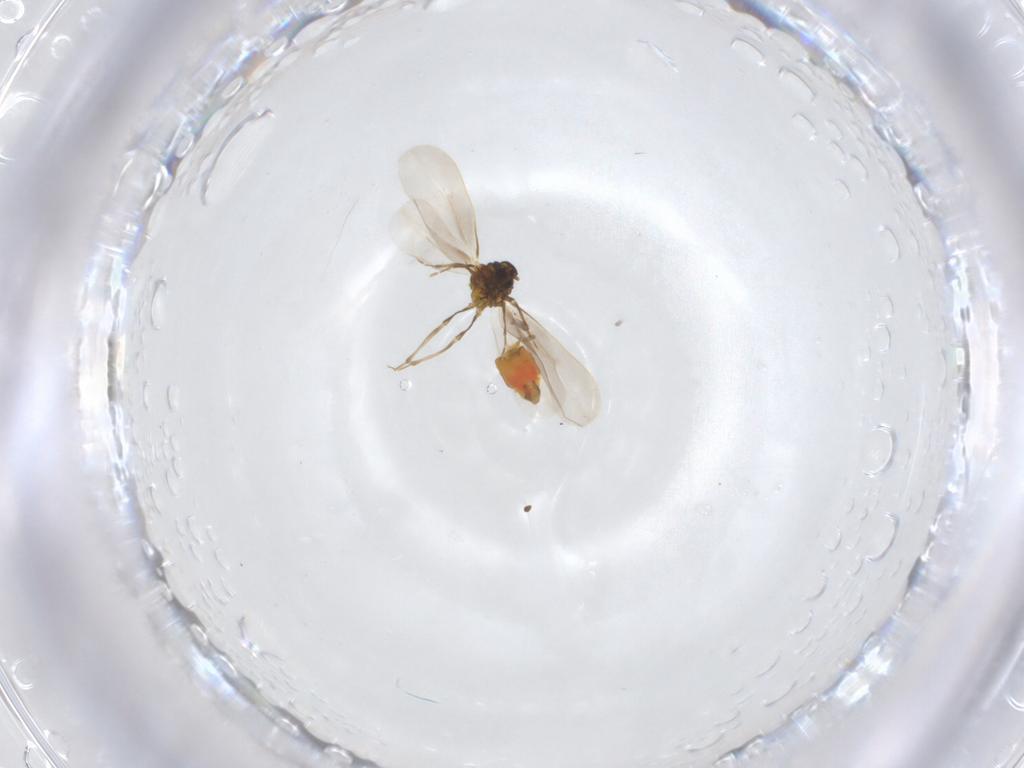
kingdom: Animalia
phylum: Arthropoda
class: Insecta
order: Hemiptera
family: Aleyrodidae
